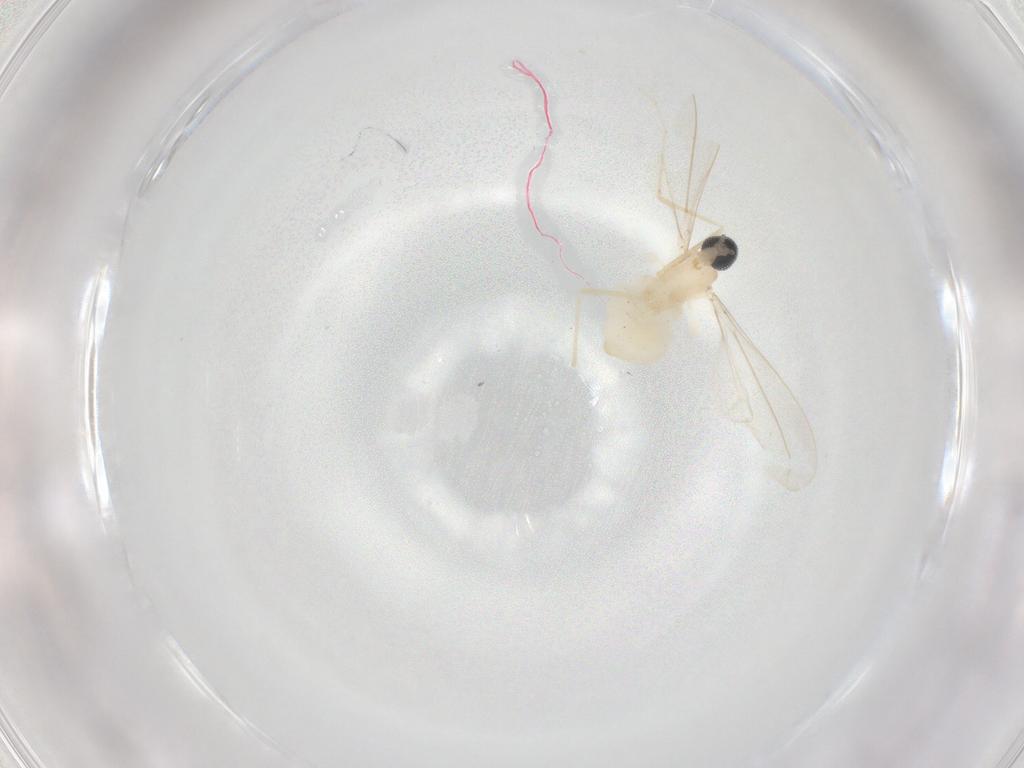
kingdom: Animalia
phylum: Arthropoda
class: Insecta
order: Diptera
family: Cecidomyiidae
